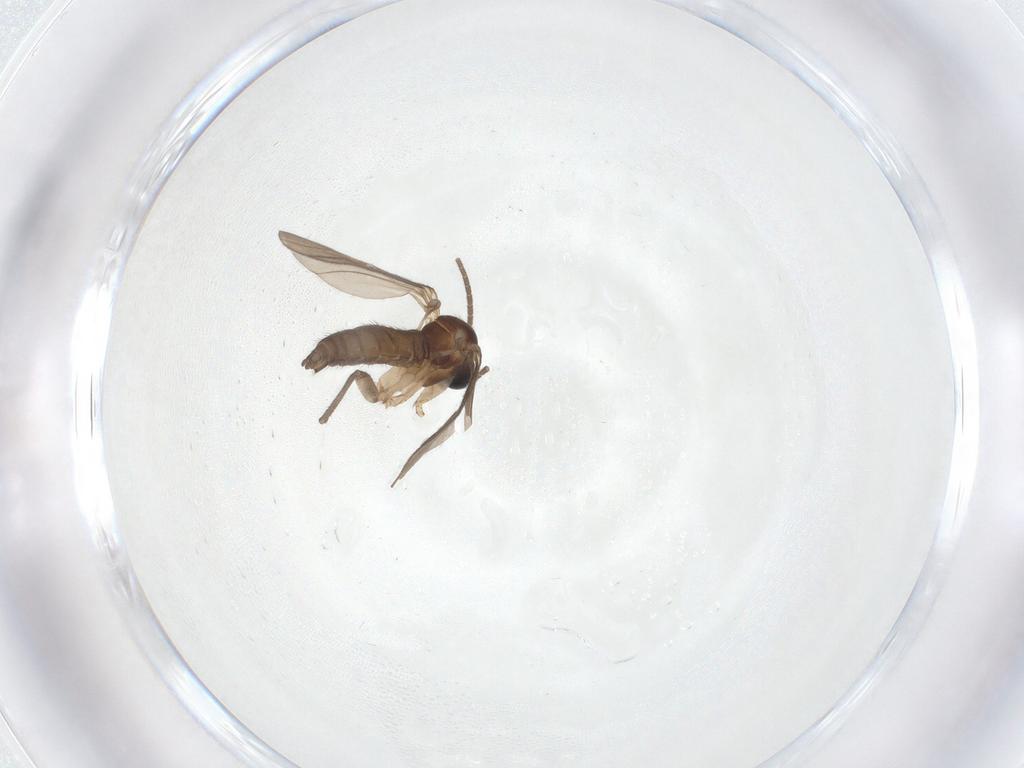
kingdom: Animalia
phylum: Arthropoda
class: Insecta
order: Diptera
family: Sciaridae
